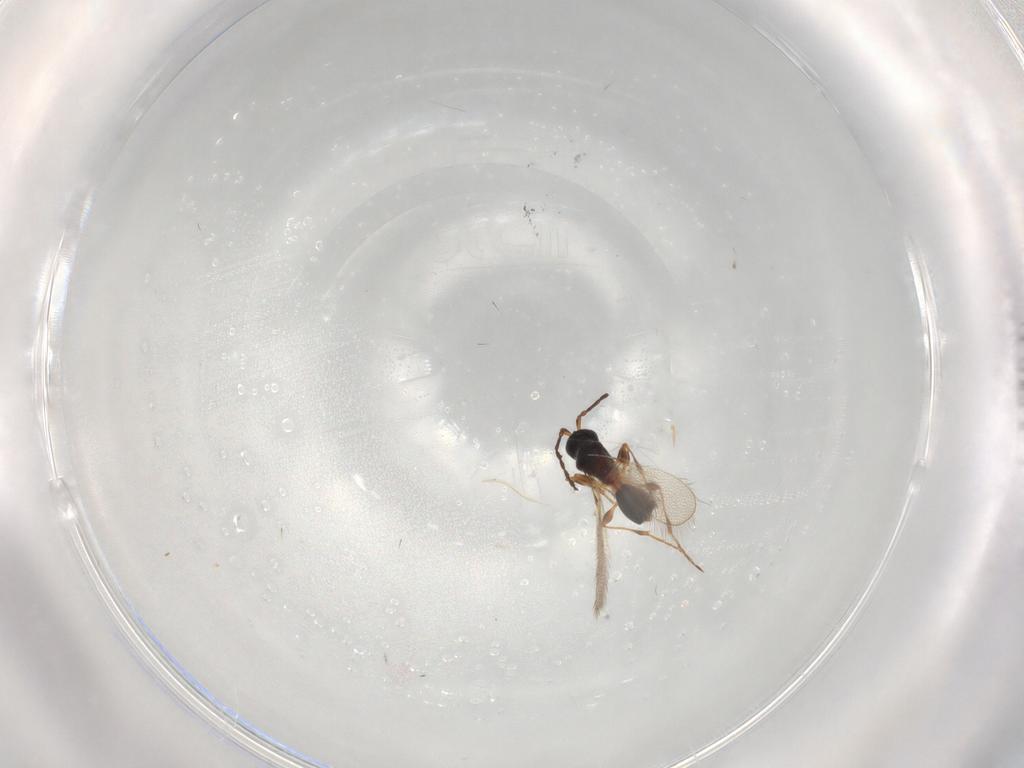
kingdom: Animalia
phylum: Arthropoda
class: Insecta
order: Hymenoptera
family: Diapriidae
